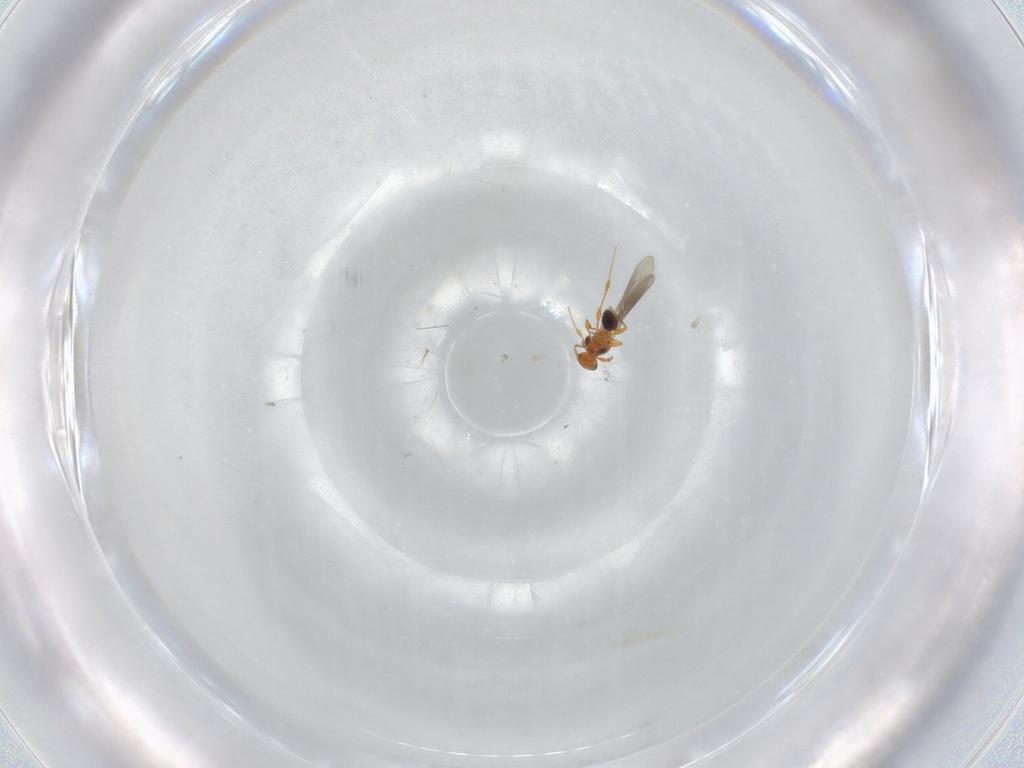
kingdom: Animalia
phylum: Arthropoda
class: Insecta
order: Hymenoptera
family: Platygastridae
